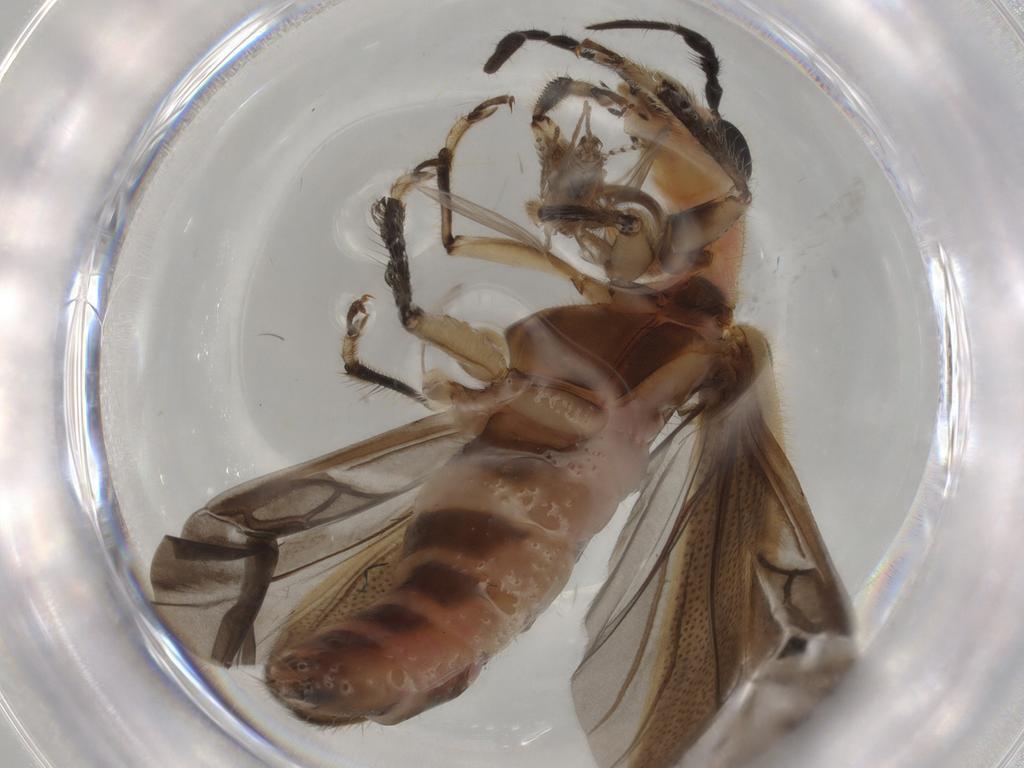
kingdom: Animalia
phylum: Arthropoda
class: Insecta
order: Coleoptera
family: Cleridae
